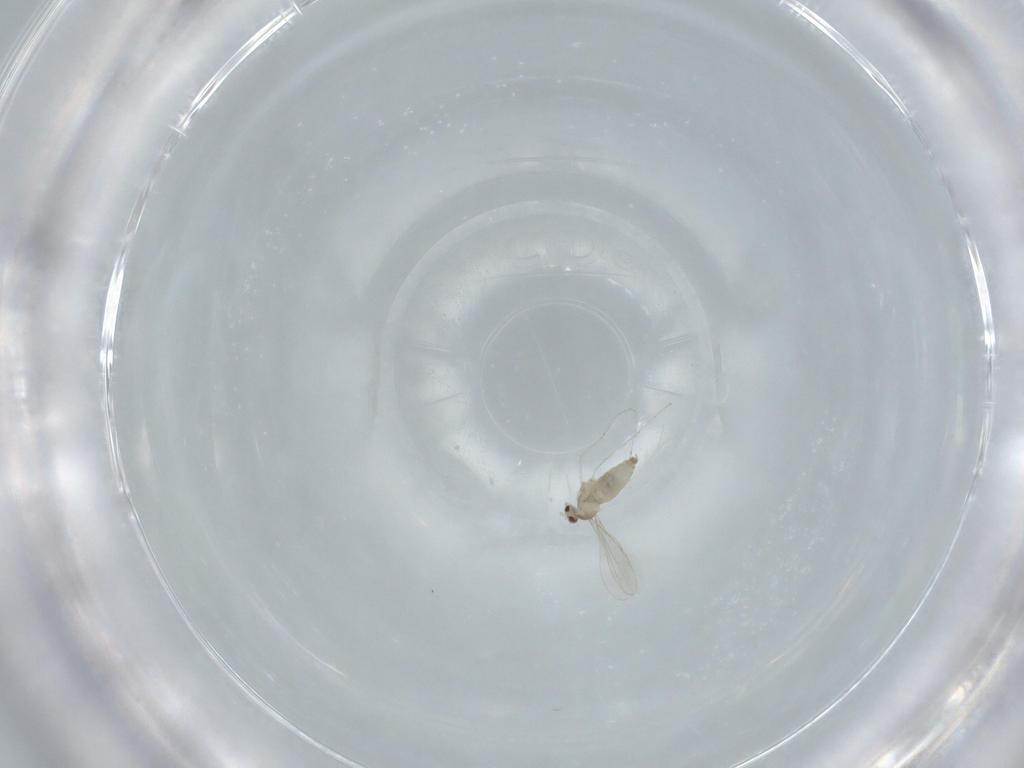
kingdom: Animalia
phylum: Arthropoda
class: Insecta
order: Diptera
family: Cecidomyiidae
